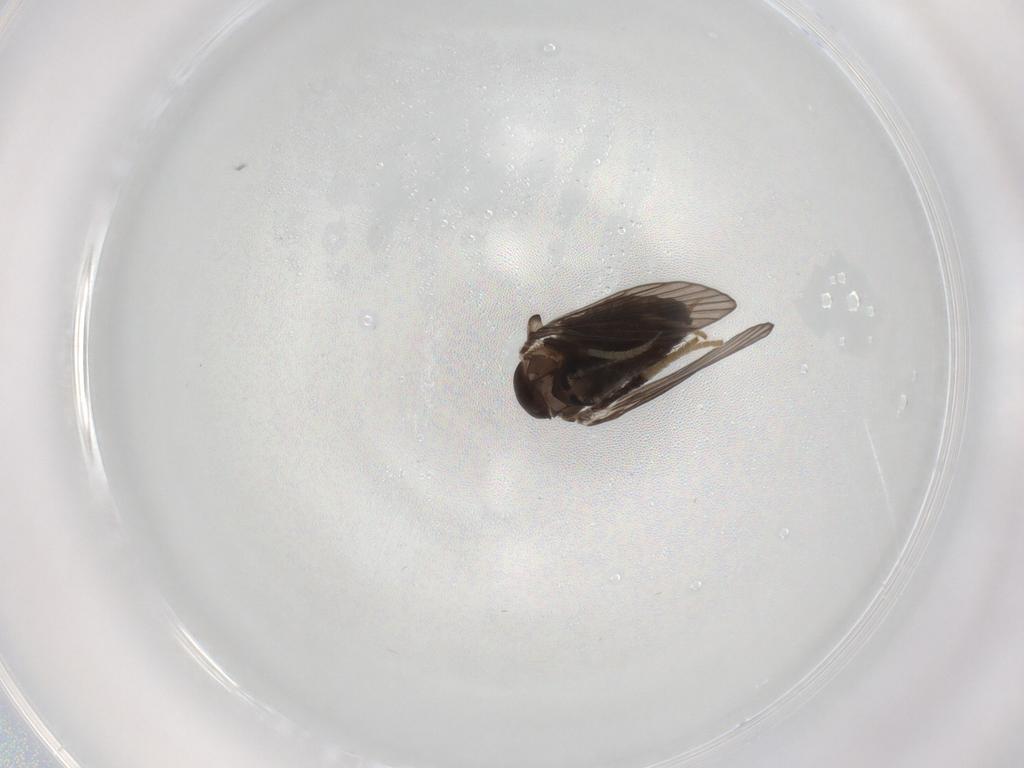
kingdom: Animalia
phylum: Arthropoda
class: Insecta
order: Diptera
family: Psychodidae
